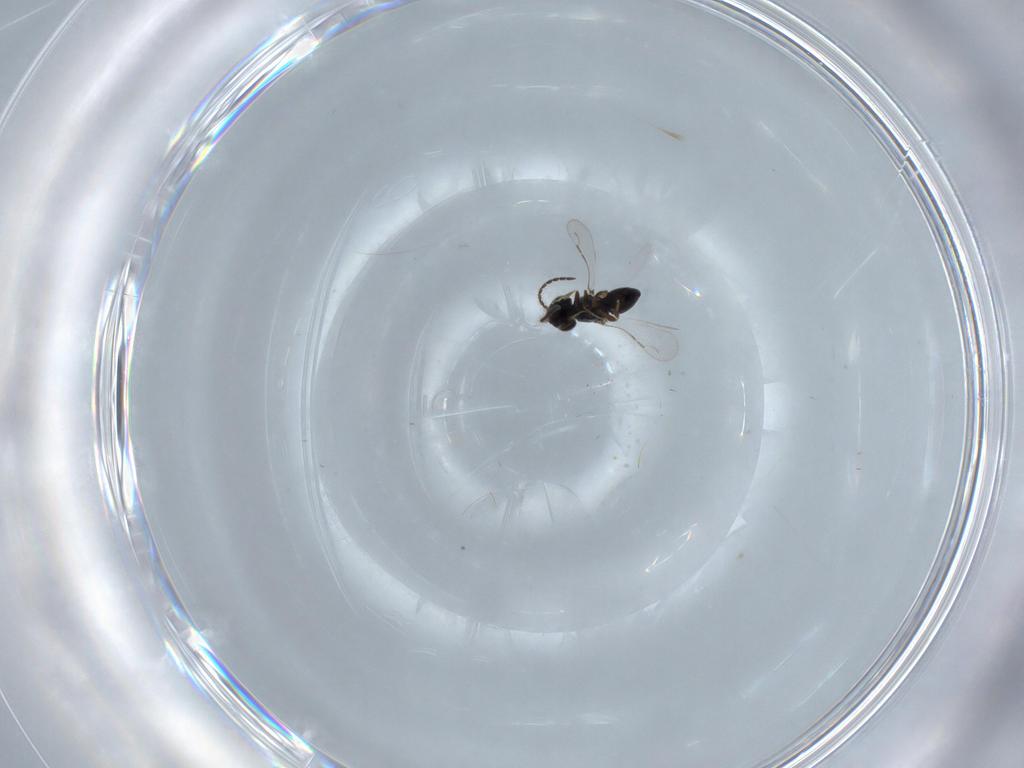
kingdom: Animalia
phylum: Arthropoda
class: Insecta
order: Hymenoptera
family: Ceraphronidae
